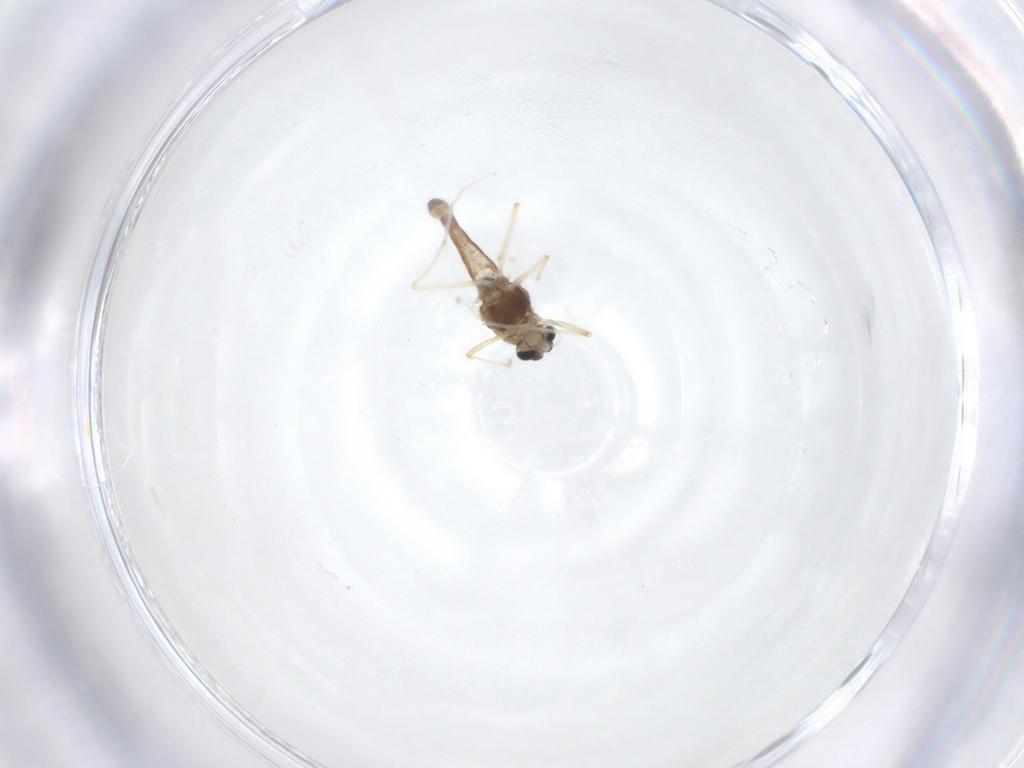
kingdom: Animalia
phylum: Arthropoda
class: Insecta
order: Diptera
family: Chironomidae
